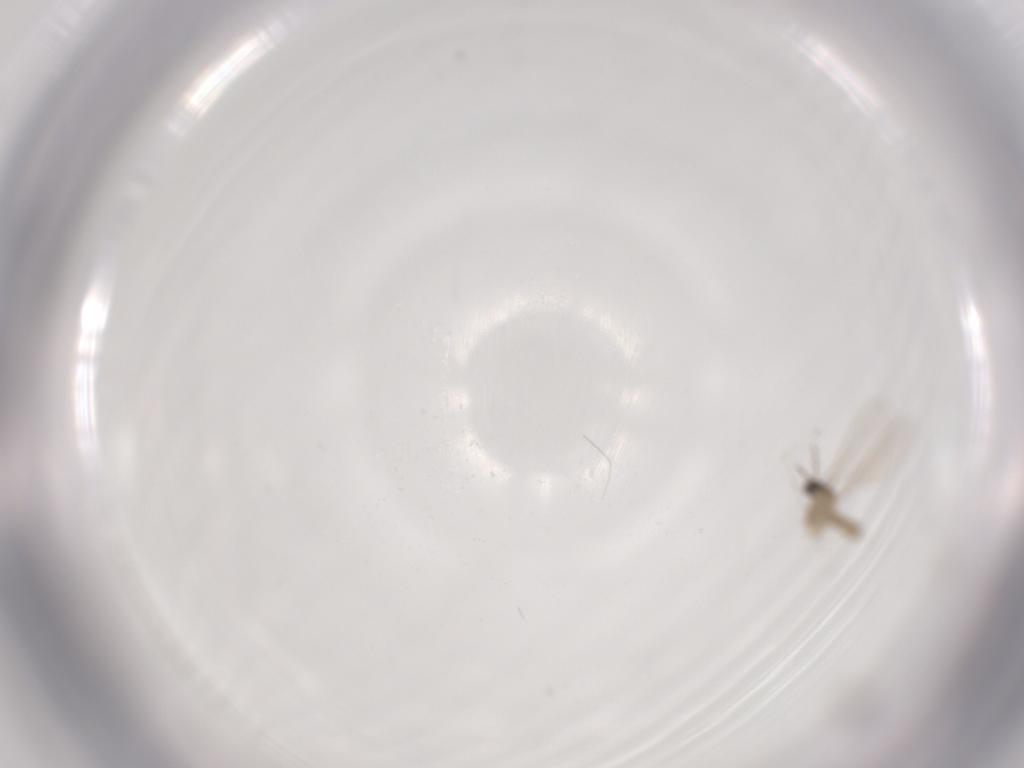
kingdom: Animalia
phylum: Arthropoda
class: Insecta
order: Diptera
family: Cecidomyiidae
